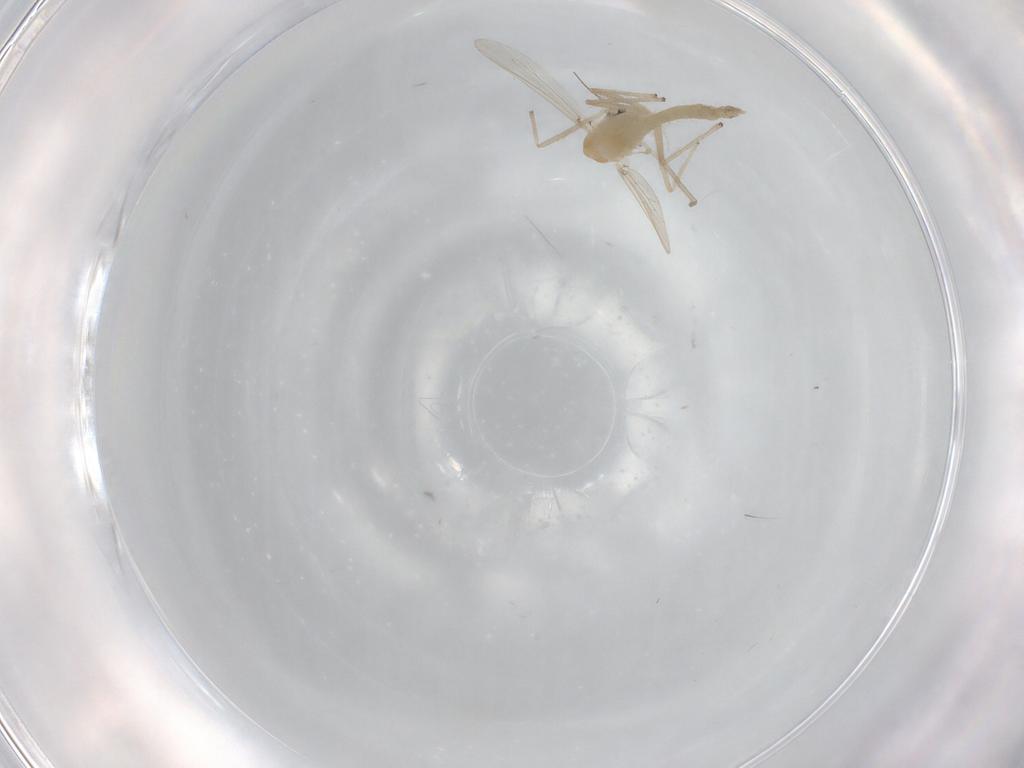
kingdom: Animalia
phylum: Arthropoda
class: Insecta
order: Diptera
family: Chironomidae
